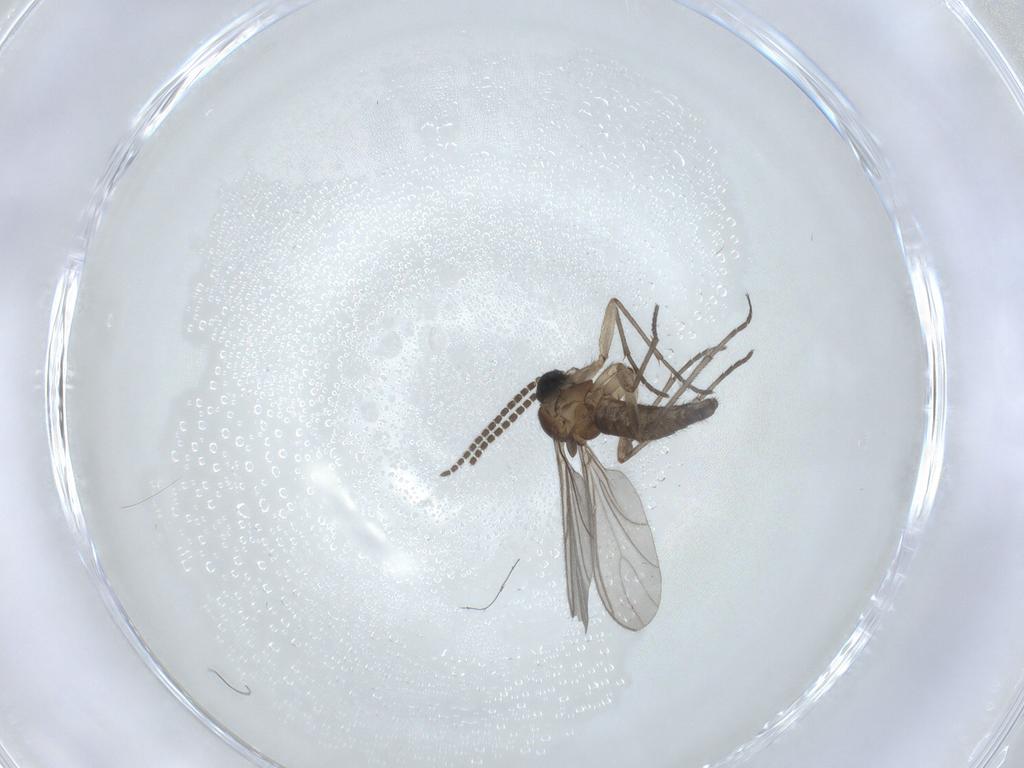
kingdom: Animalia
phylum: Arthropoda
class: Insecta
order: Diptera
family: Sciaridae
